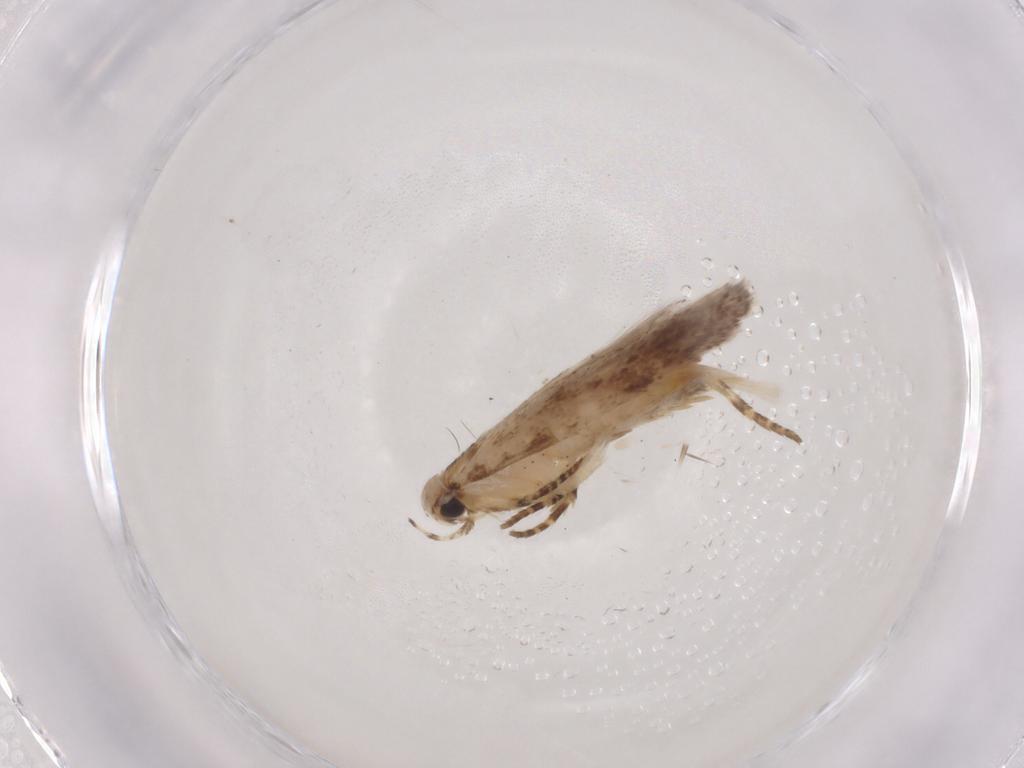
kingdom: Animalia
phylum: Arthropoda
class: Insecta
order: Lepidoptera
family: Gelechiidae
